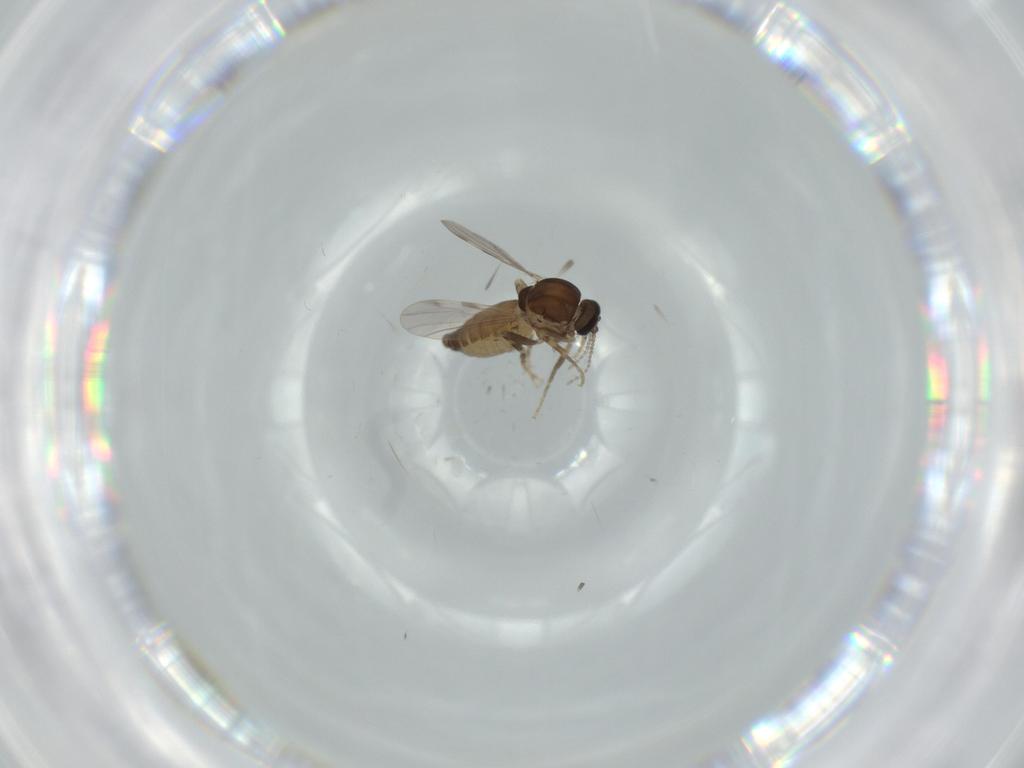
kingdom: Animalia
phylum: Arthropoda
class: Insecta
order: Diptera
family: Ceratopogonidae
